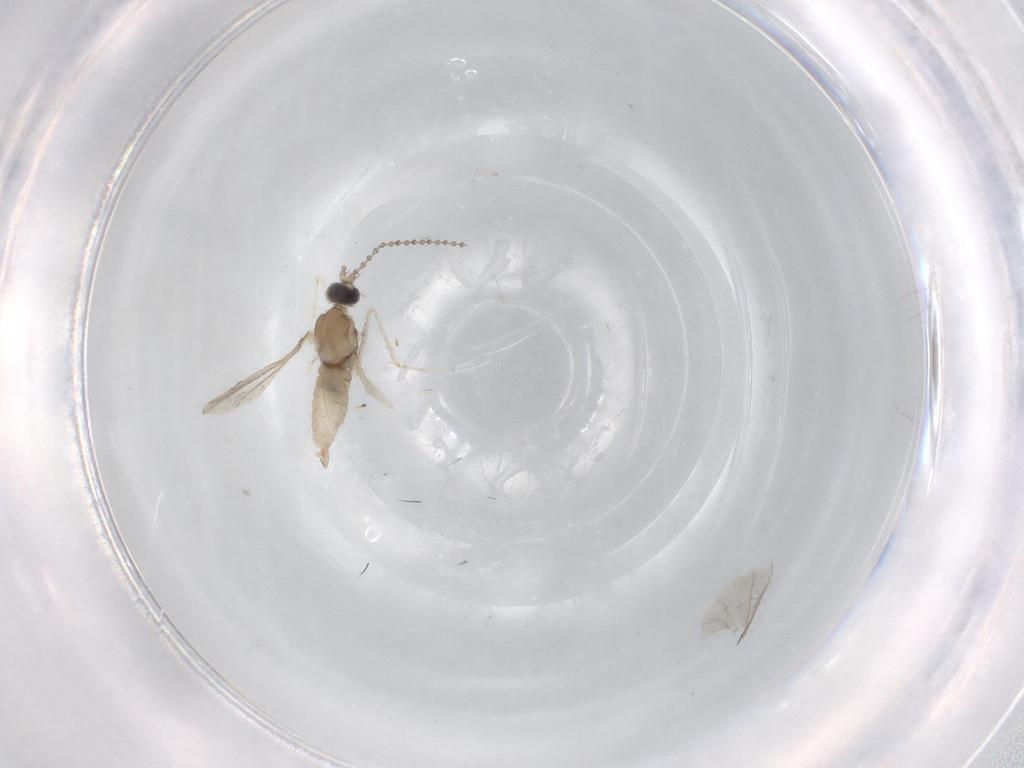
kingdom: Animalia
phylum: Arthropoda
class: Insecta
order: Diptera
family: Cecidomyiidae
